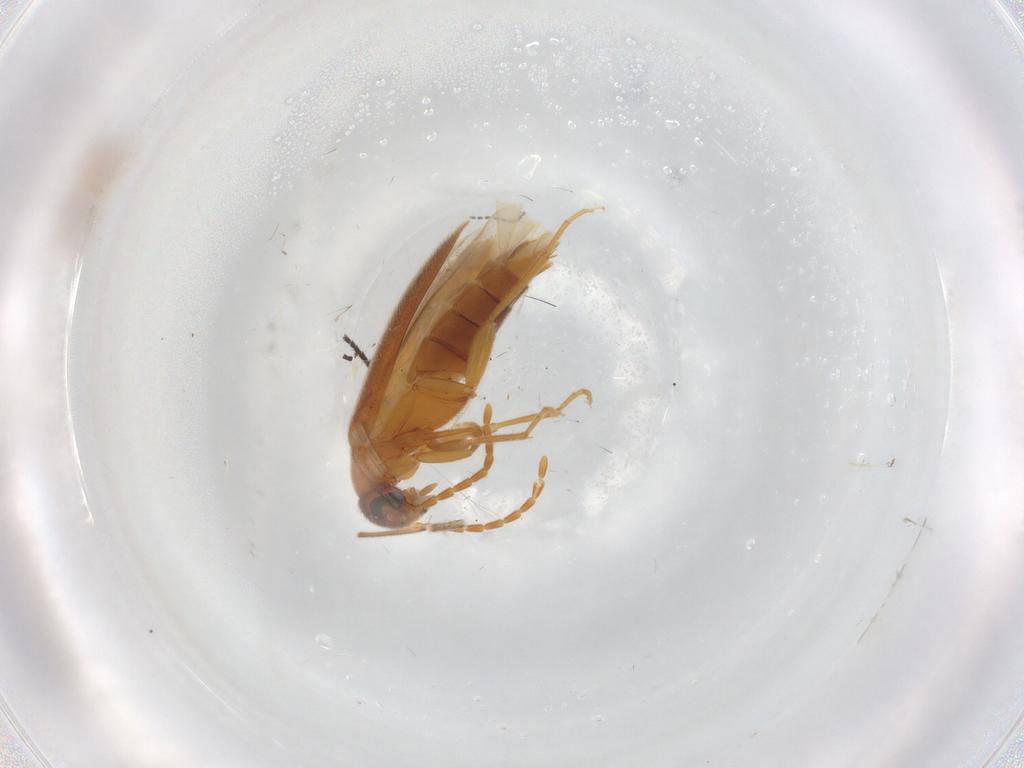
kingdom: Animalia
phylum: Arthropoda
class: Insecta
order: Coleoptera
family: Scraptiidae
